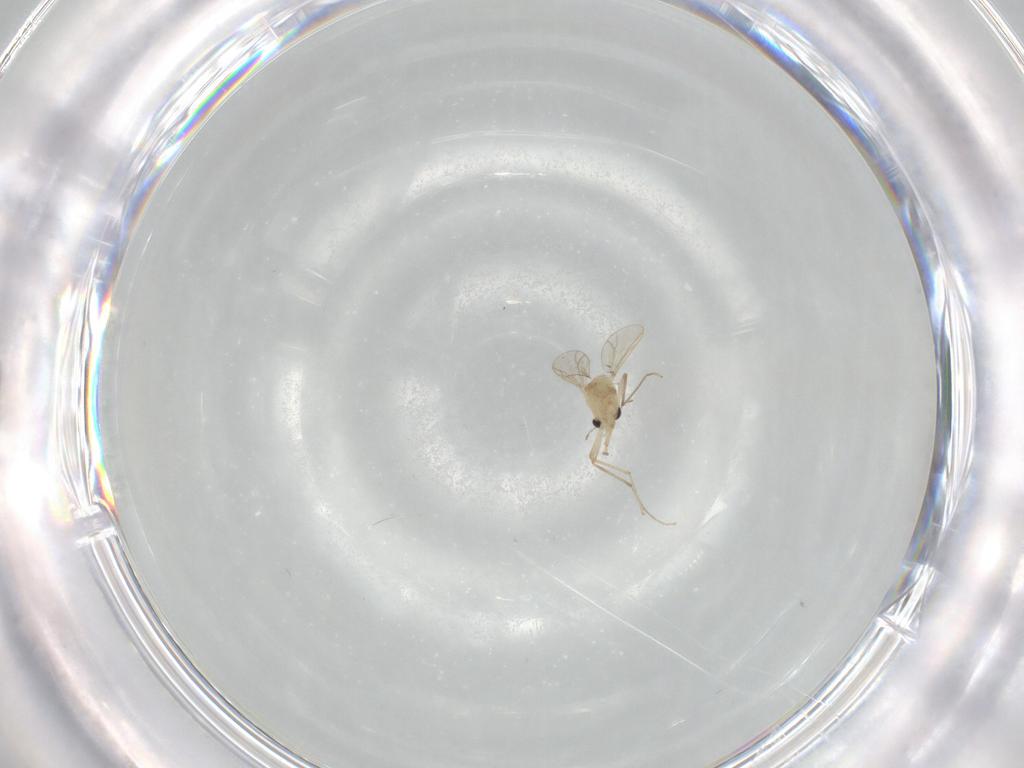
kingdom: Animalia
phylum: Arthropoda
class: Insecta
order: Diptera
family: Chironomidae
